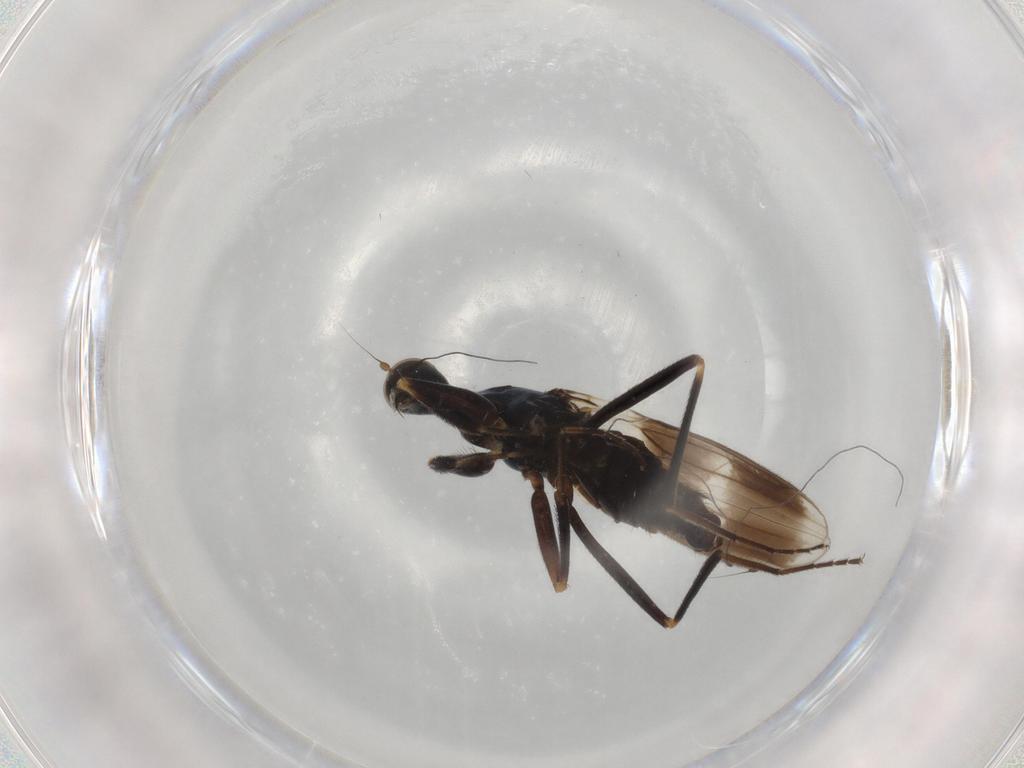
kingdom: Animalia
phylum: Arthropoda
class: Insecta
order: Diptera
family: Hybotidae
